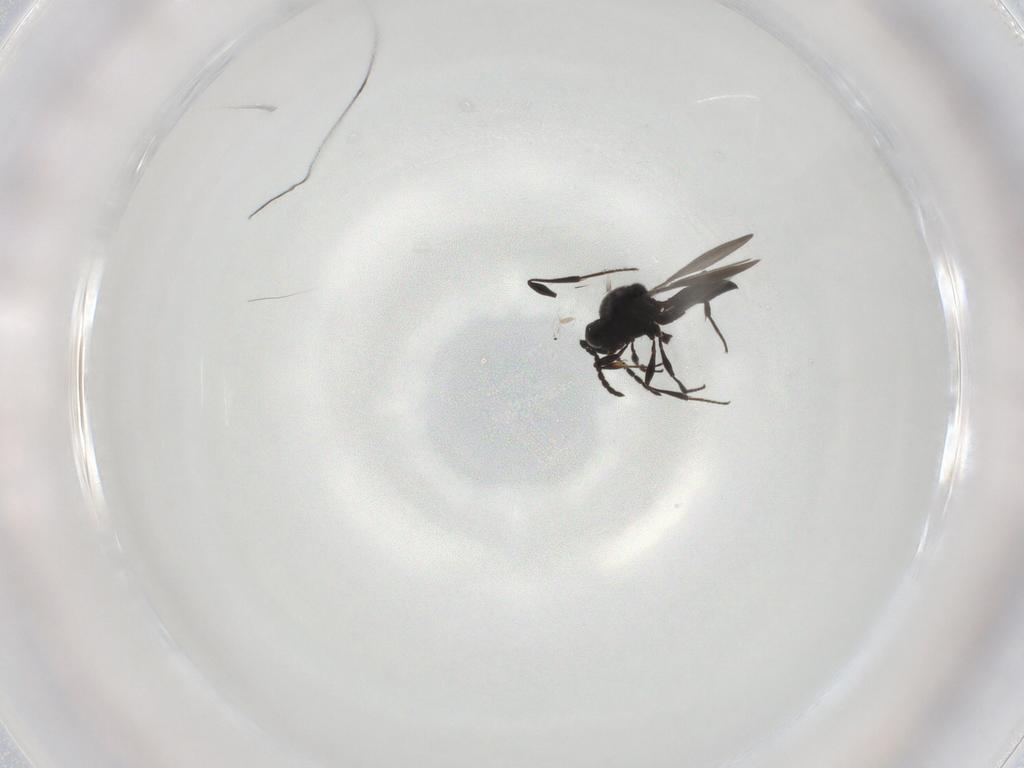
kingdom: Animalia
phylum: Arthropoda
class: Insecta
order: Hymenoptera
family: Platygastridae
